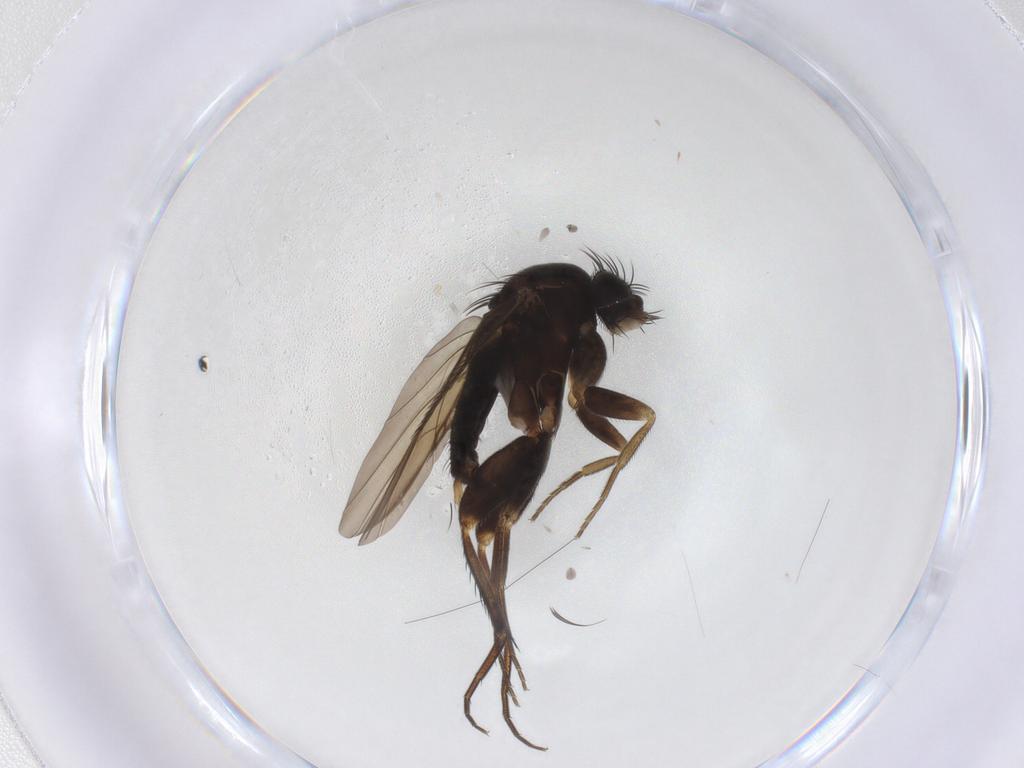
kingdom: Animalia
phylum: Arthropoda
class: Insecta
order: Diptera
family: Phoridae
